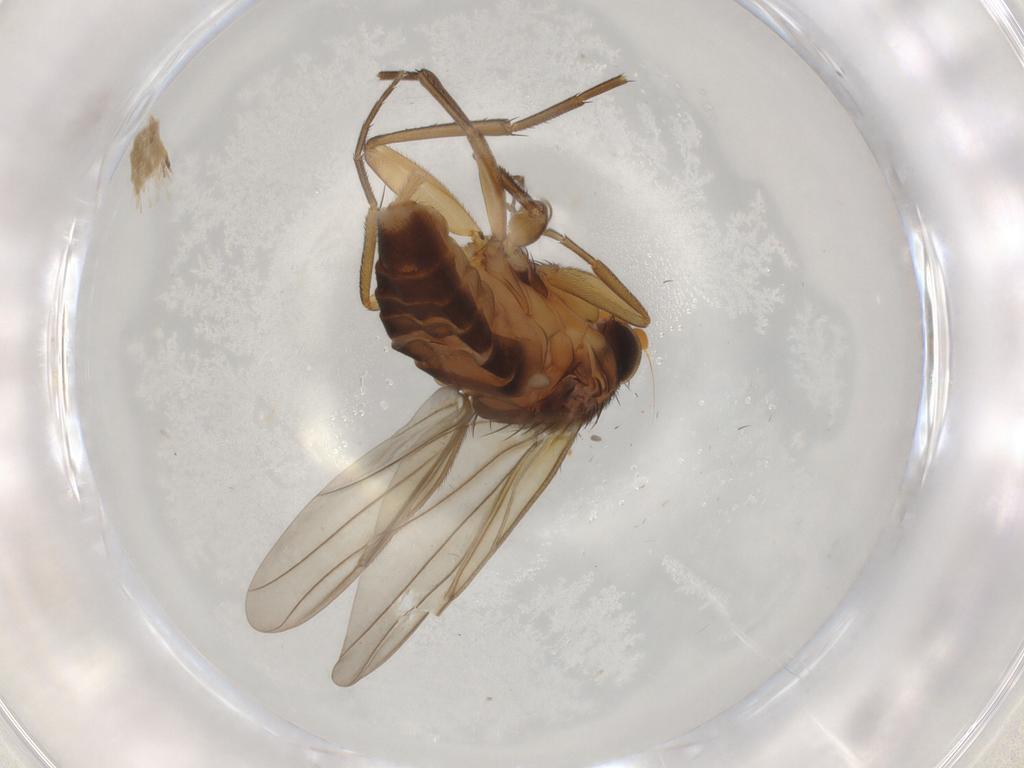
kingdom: Animalia
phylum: Arthropoda
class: Insecta
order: Diptera
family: Phoridae
